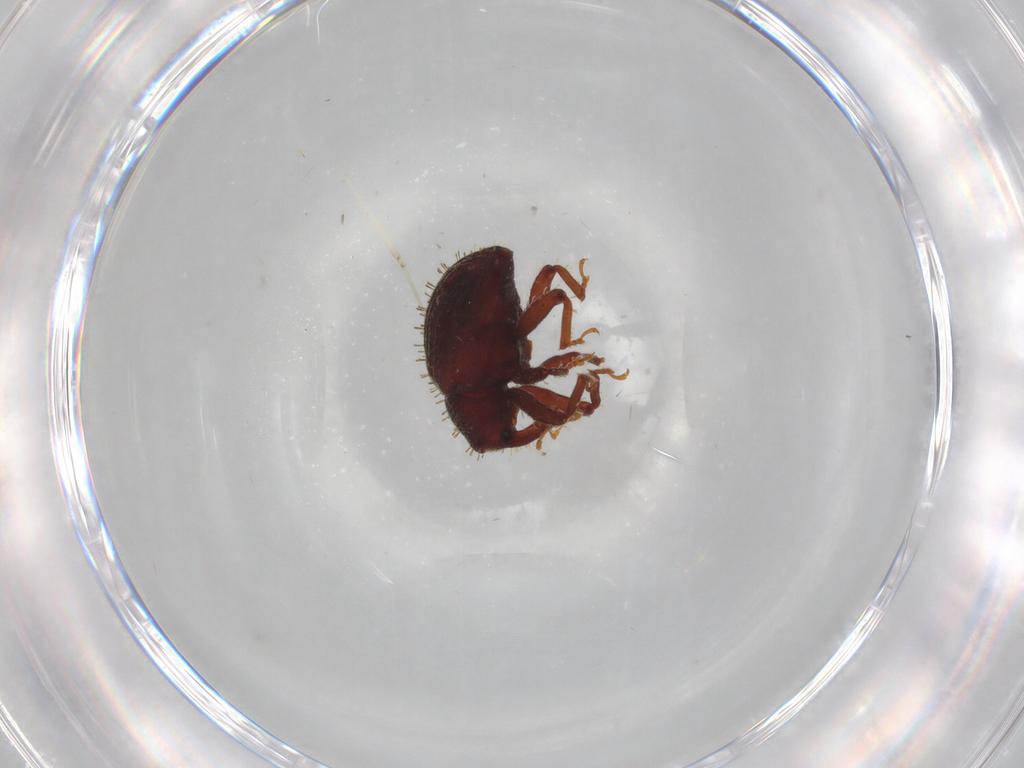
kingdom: Animalia
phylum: Arthropoda
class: Insecta
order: Coleoptera
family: Curculionidae
